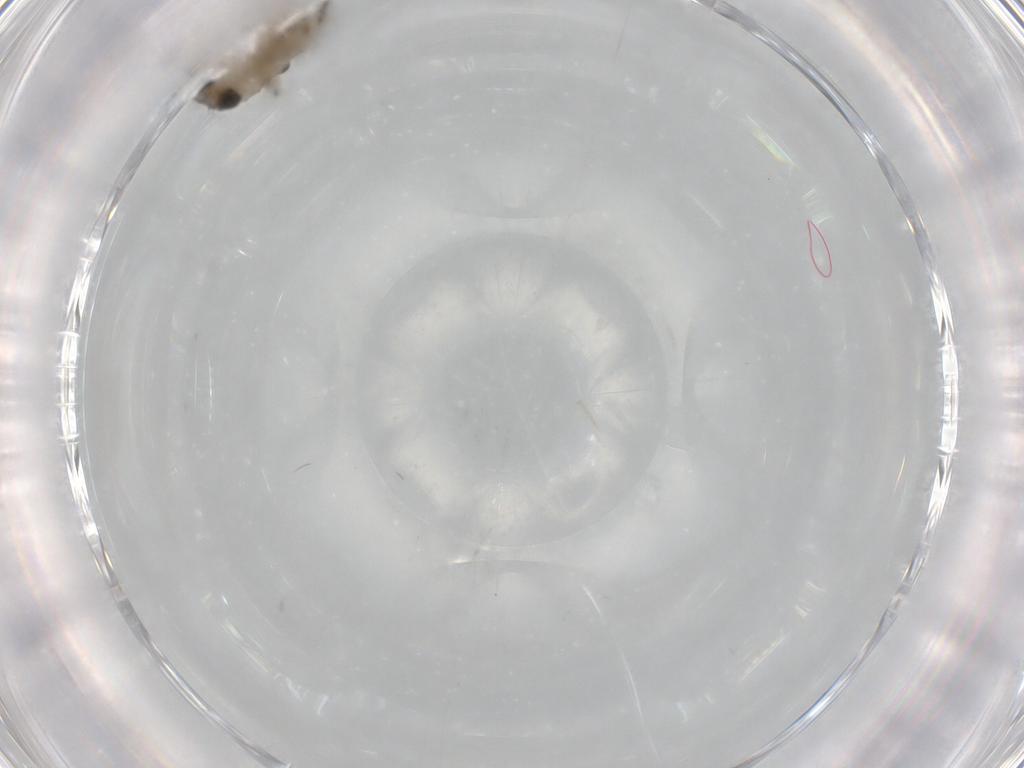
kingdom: Animalia
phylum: Arthropoda
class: Insecta
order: Diptera
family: Phoridae
